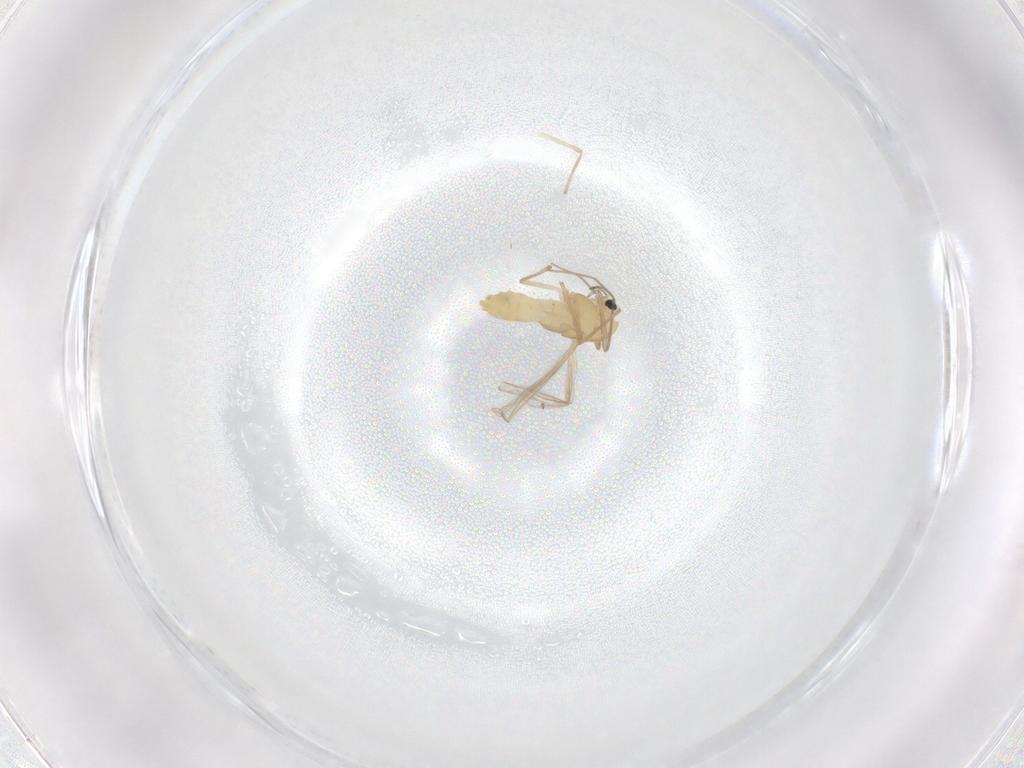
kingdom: Animalia
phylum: Arthropoda
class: Insecta
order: Diptera
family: Chironomidae
